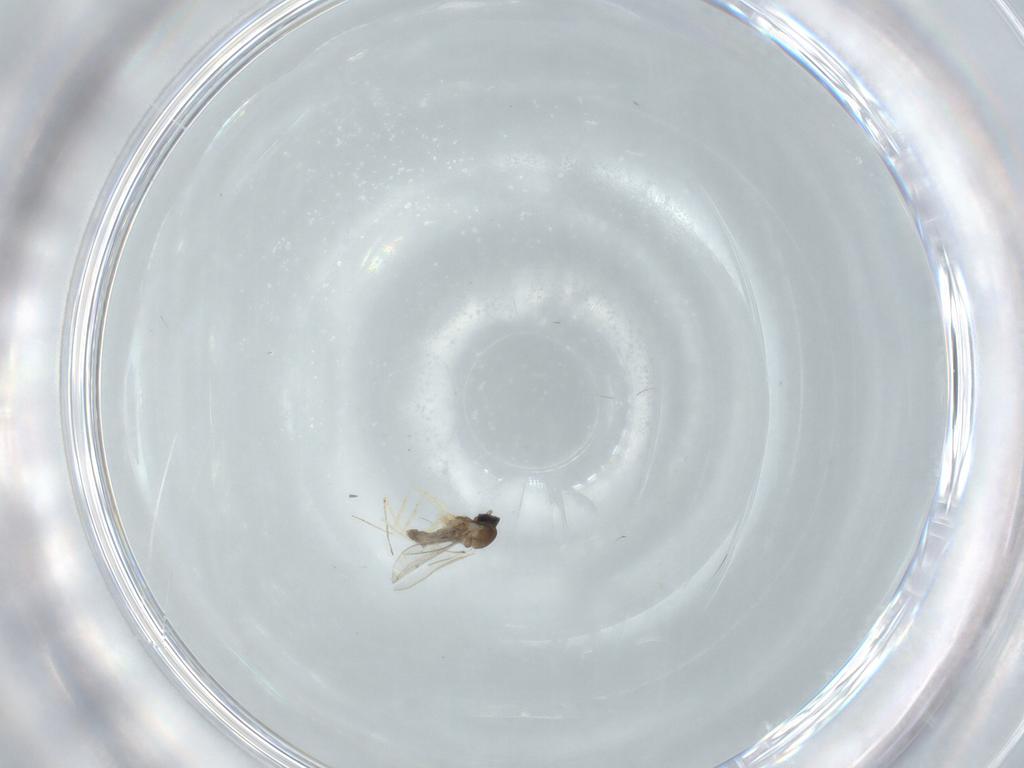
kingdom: Animalia
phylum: Arthropoda
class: Insecta
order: Diptera
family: Cecidomyiidae
